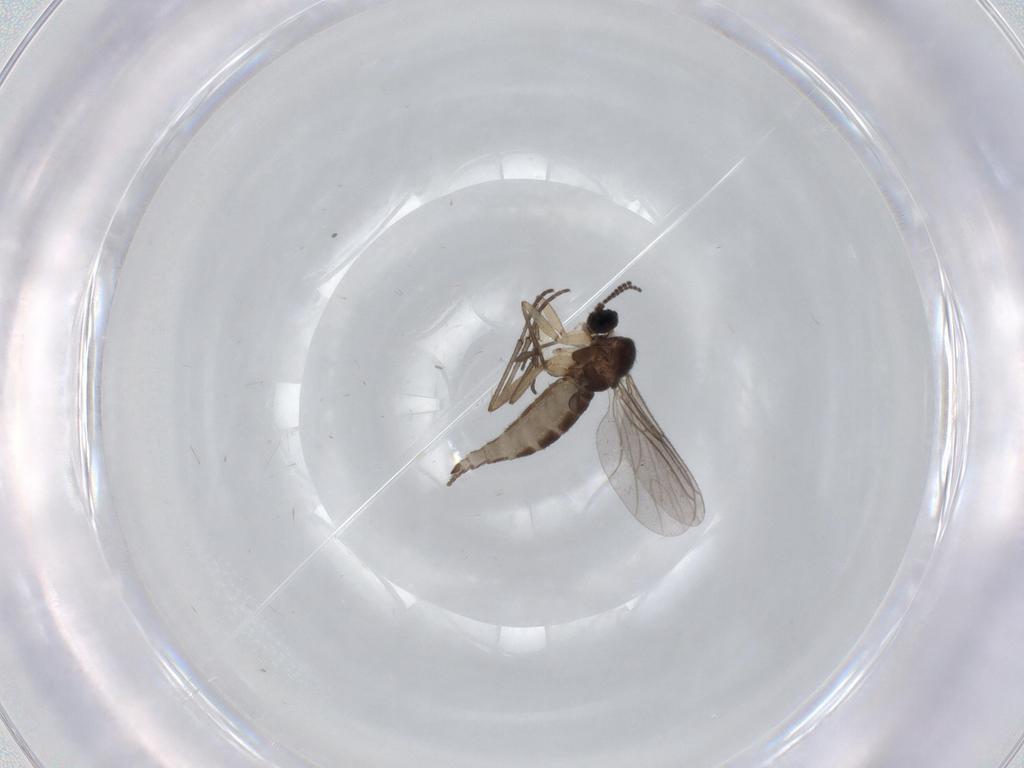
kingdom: Animalia
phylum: Arthropoda
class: Insecta
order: Diptera
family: Sciaridae
